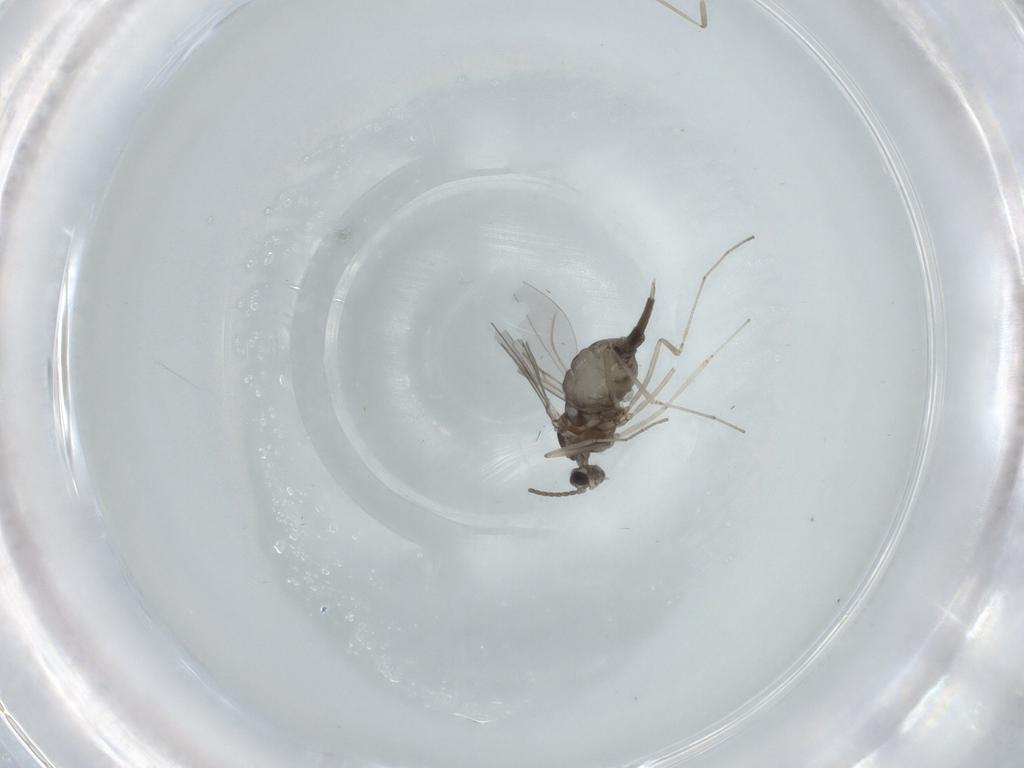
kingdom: Animalia
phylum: Arthropoda
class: Insecta
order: Diptera
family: Cecidomyiidae
